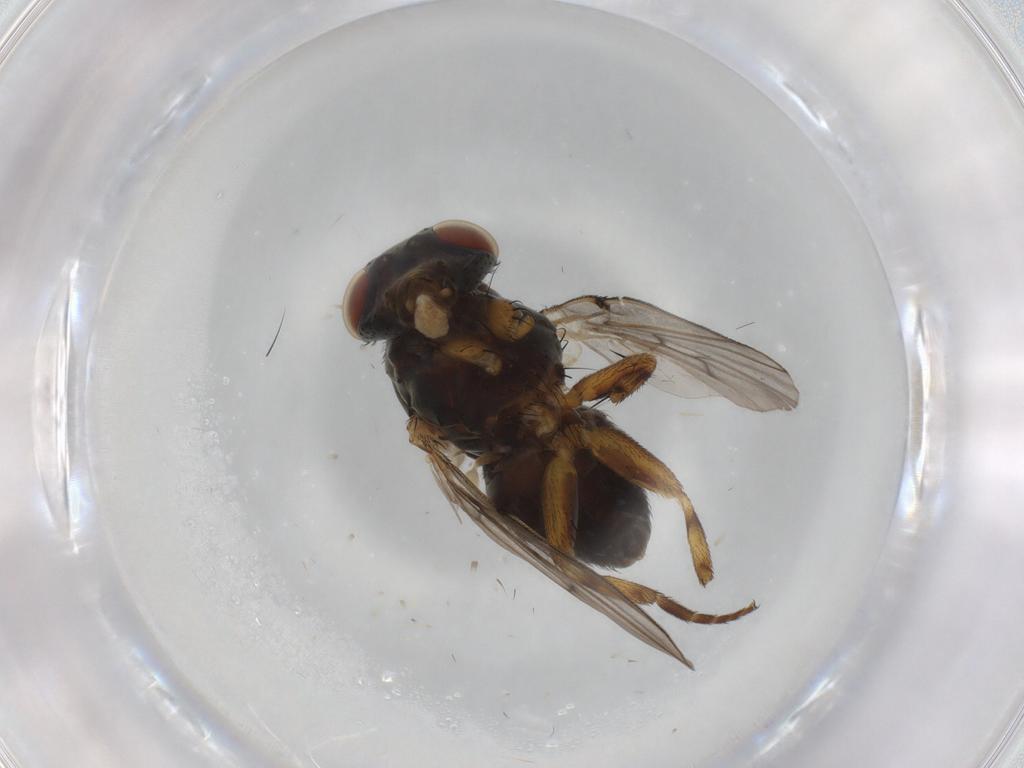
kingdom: Animalia
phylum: Arthropoda
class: Insecta
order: Diptera
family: Odiniidae
